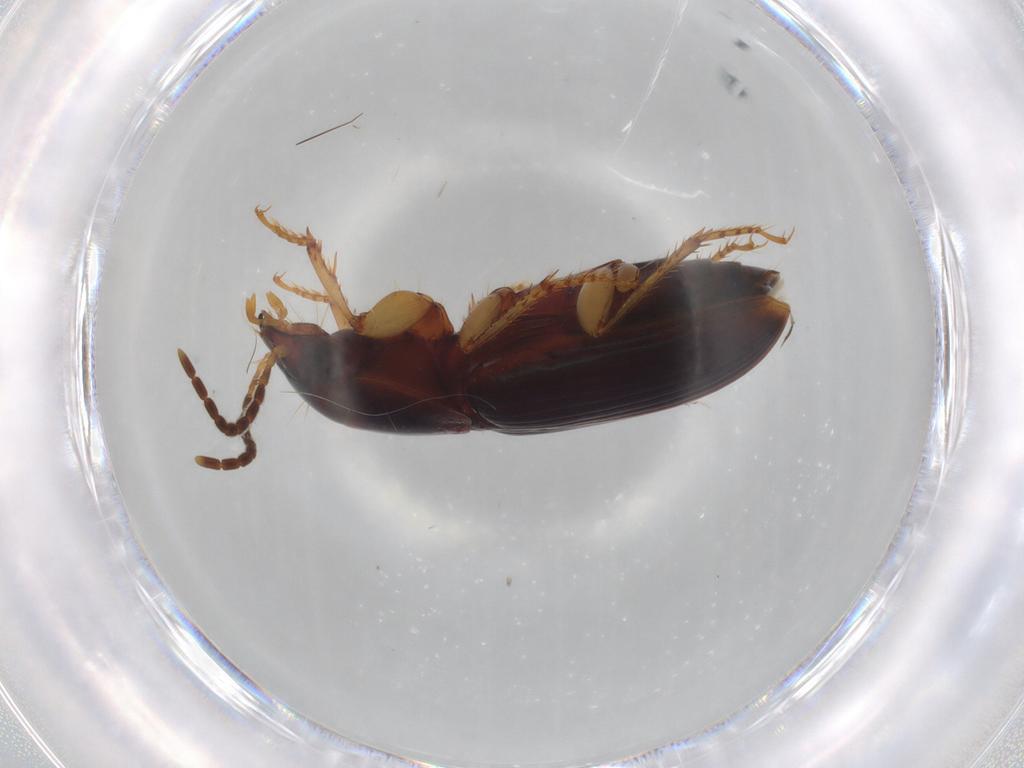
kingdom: Animalia
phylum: Arthropoda
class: Insecta
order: Coleoptera
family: Carabidae
